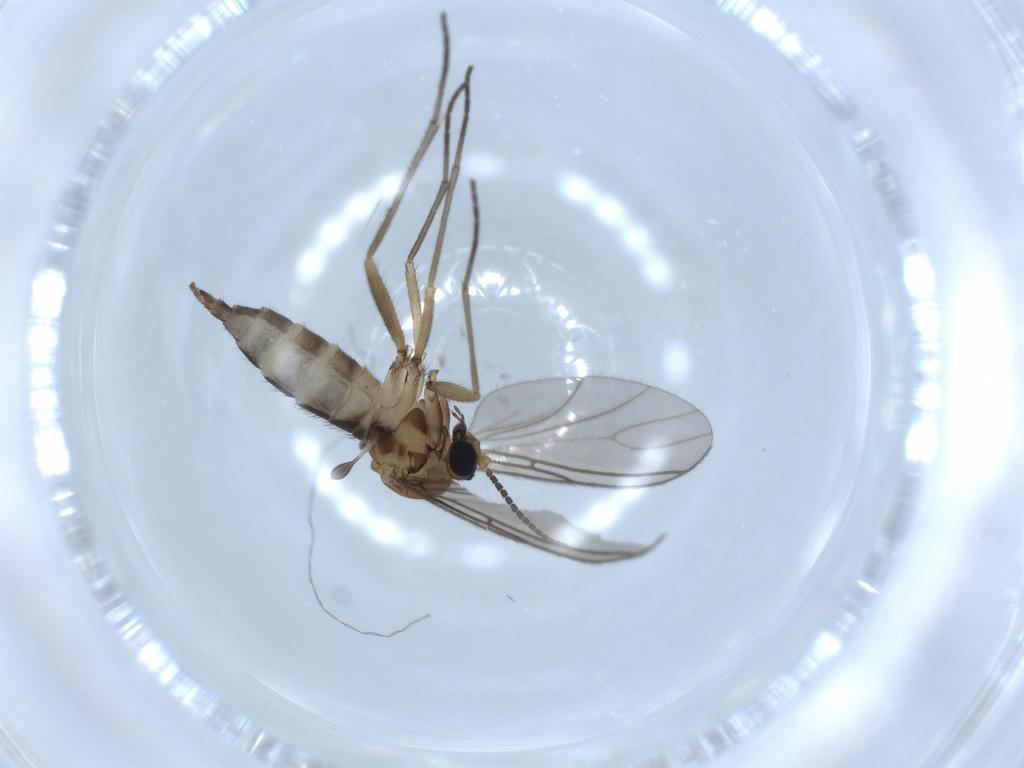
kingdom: Animalia
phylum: Arthropoda
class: Insecta
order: Diptera
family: Sciaridae
